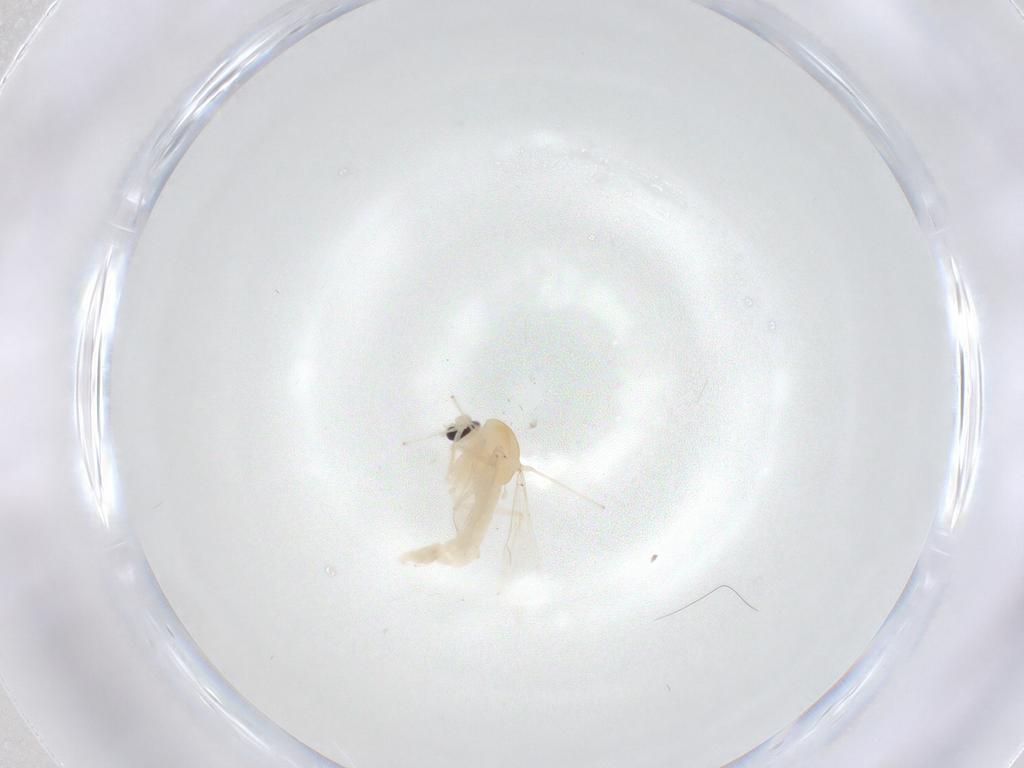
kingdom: Animalia
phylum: Arthropoda
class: Insecta
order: Diptera
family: Chironomidae
